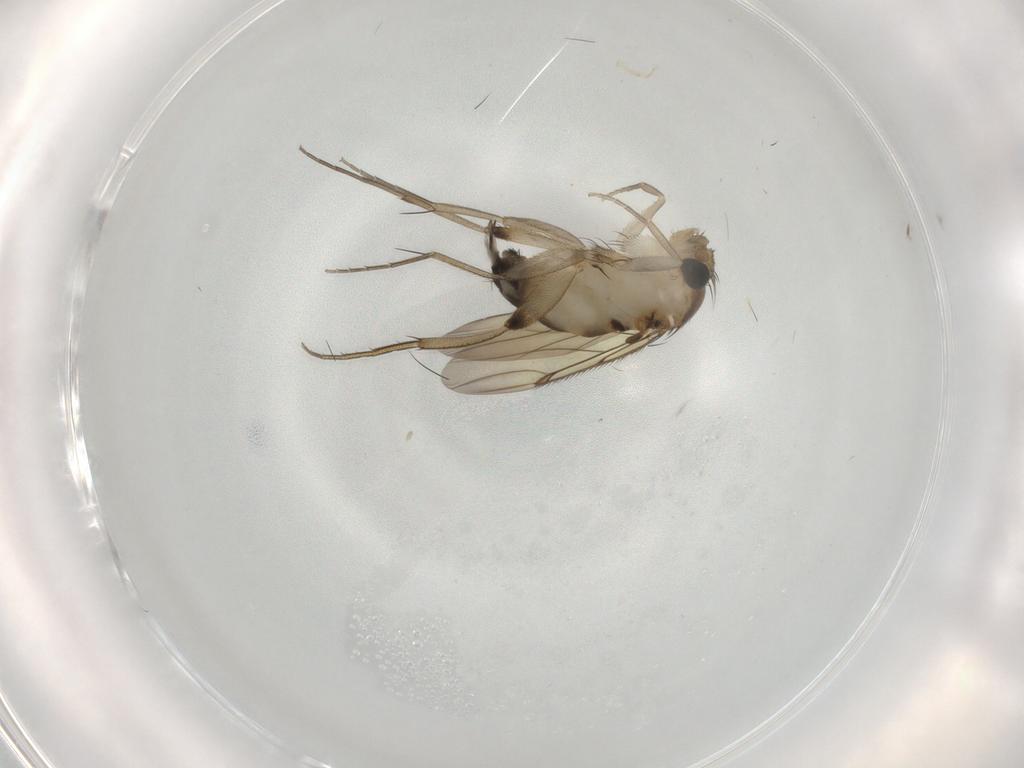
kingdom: Animalia
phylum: Arthropoda
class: Insecta
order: Diptera
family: Phoridae
